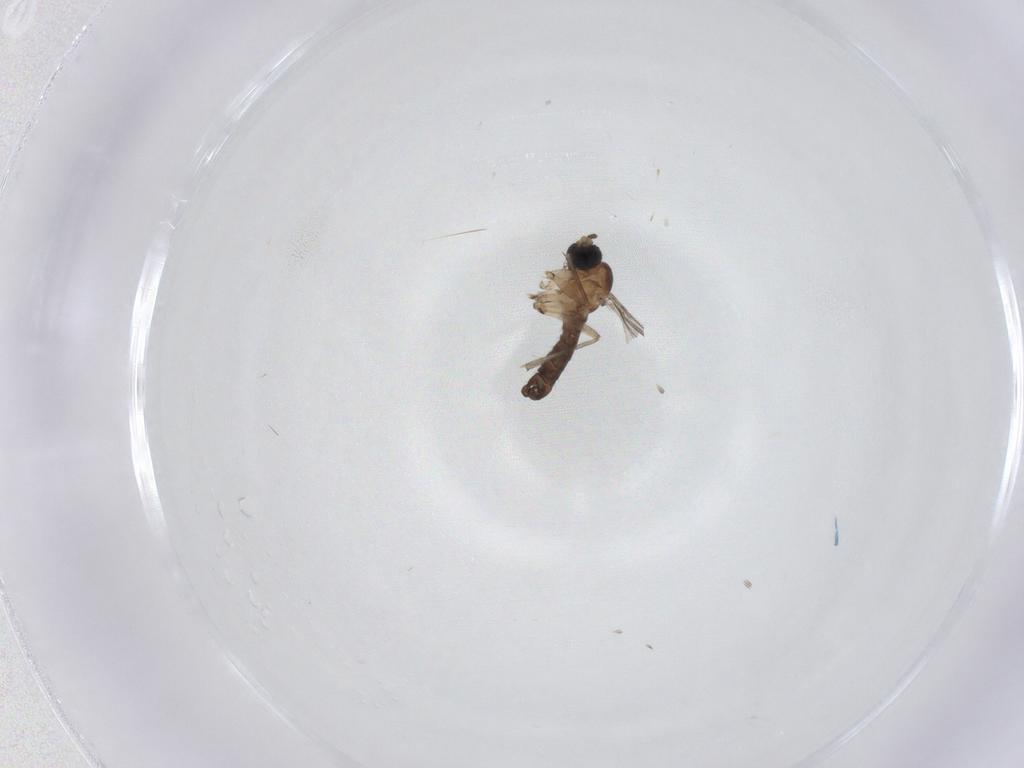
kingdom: Animalia
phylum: Arthropoda
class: Insecta
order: Diptera
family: Sciaridae
